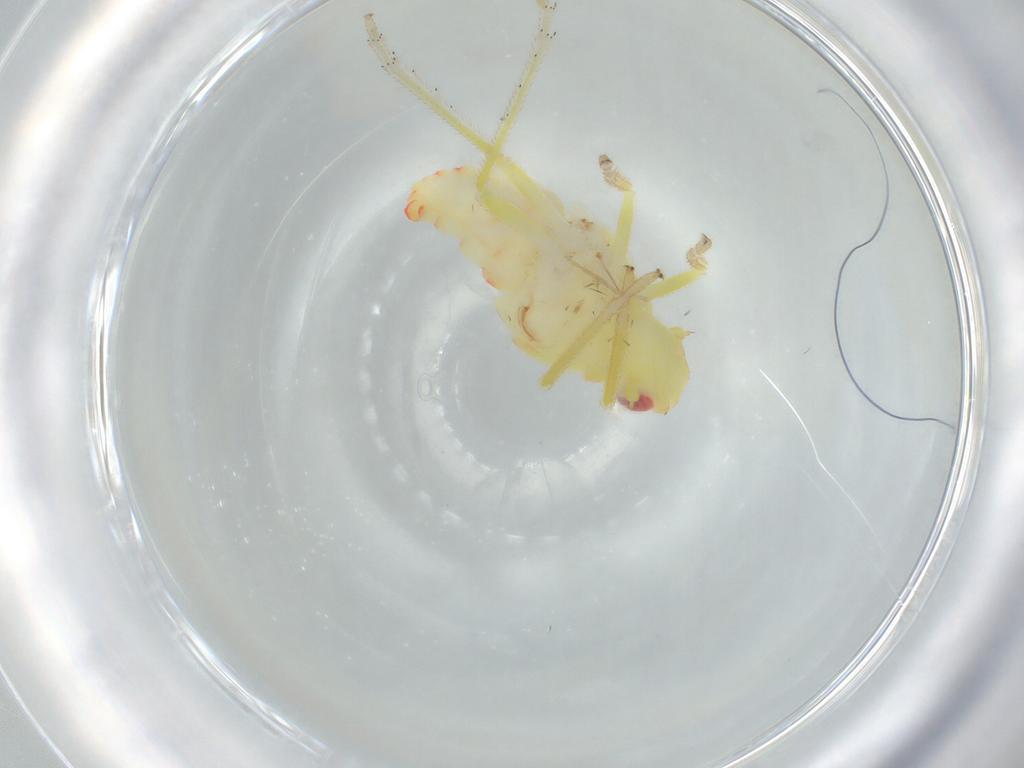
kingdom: Animalia
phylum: Arthropoda
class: Insecta
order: Hemiptera
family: Tropiduchidae
